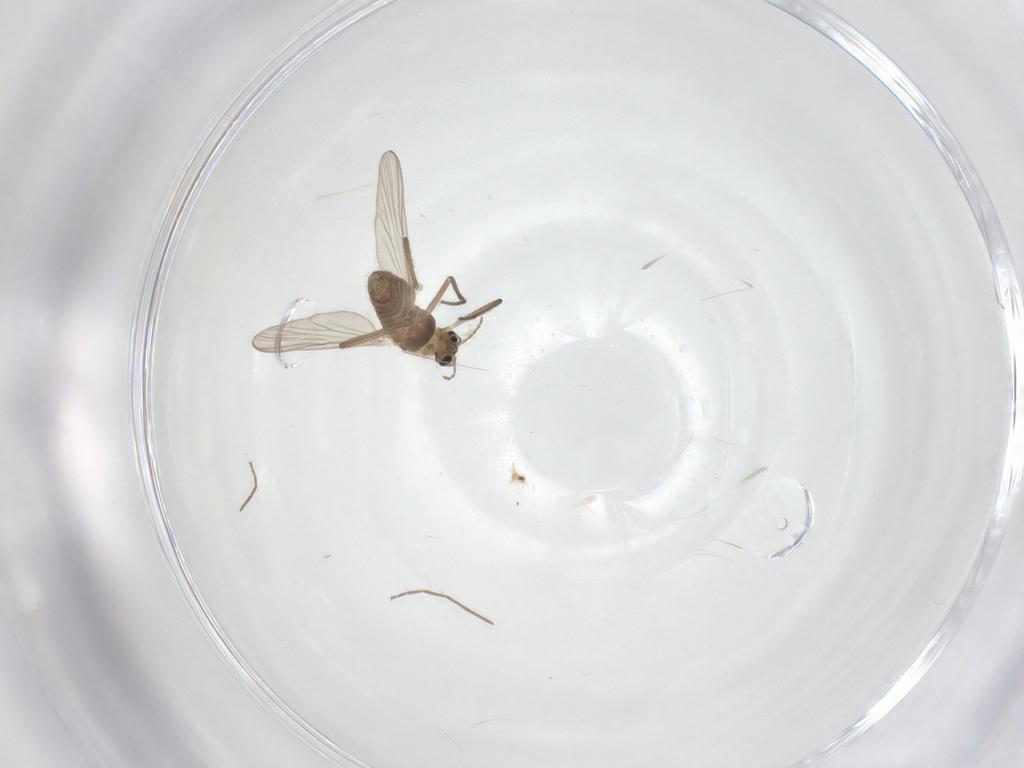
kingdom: Animalia
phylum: Arthropoda
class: Insecta
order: Diptera
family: Chironomidae
